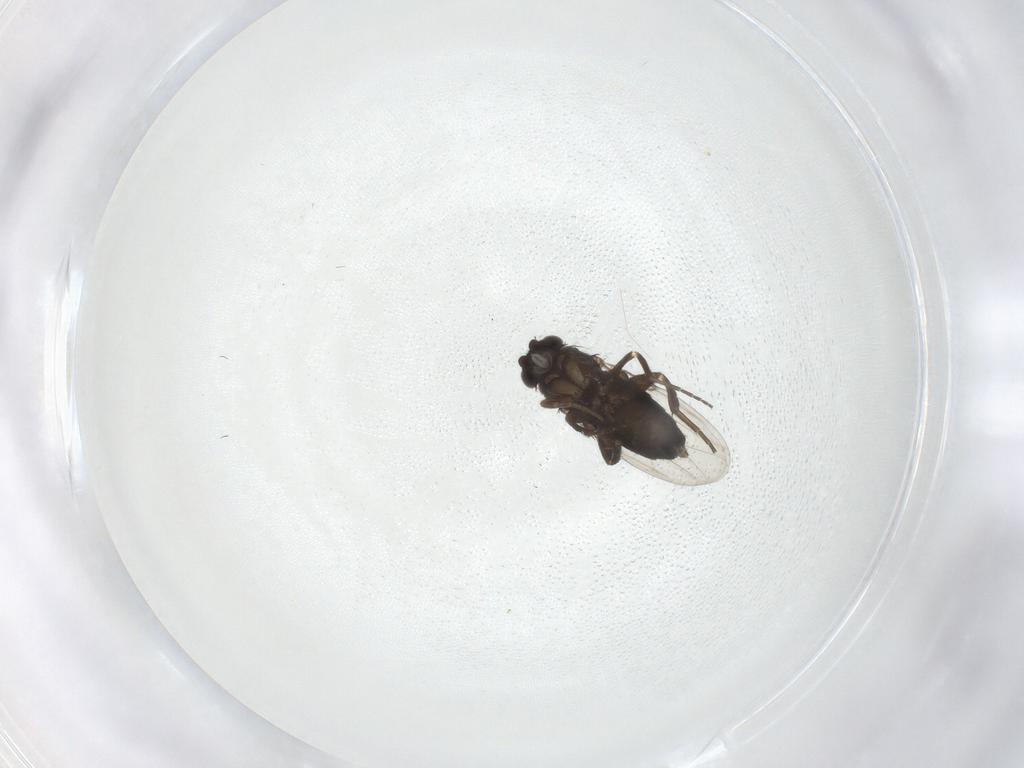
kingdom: Animalia
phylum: Arthropoda
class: Insecta
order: Diptera
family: Phoridae
